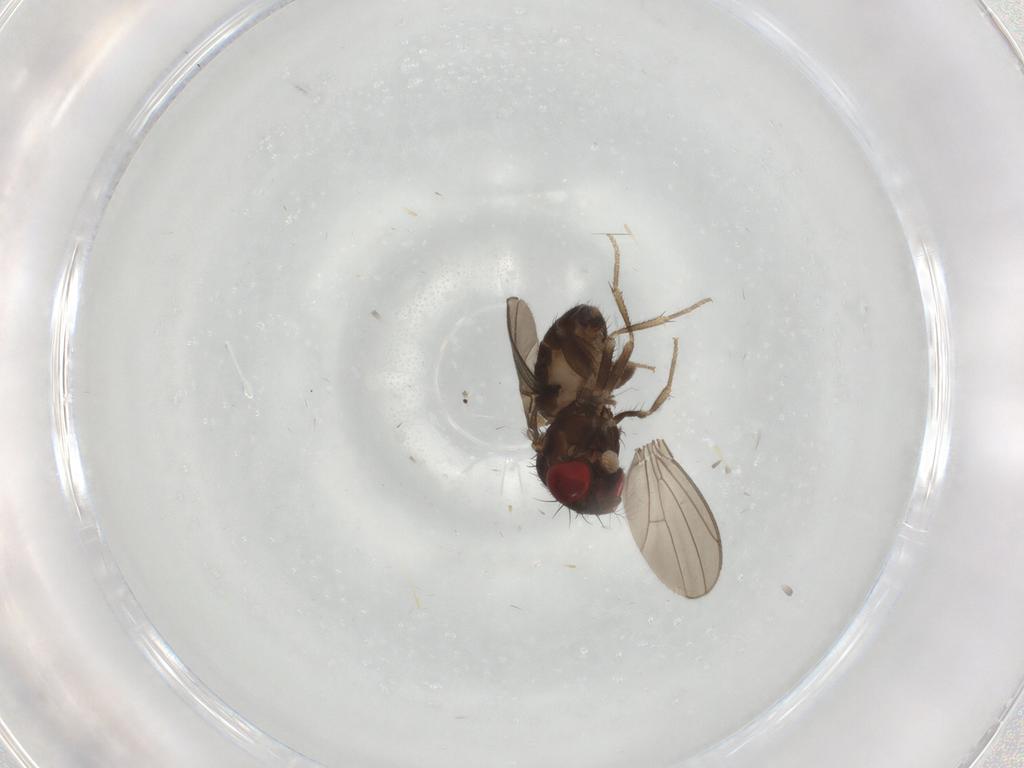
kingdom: Animalia
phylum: Arthropoda
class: Insecta
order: Diptera
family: Drosophilidae
